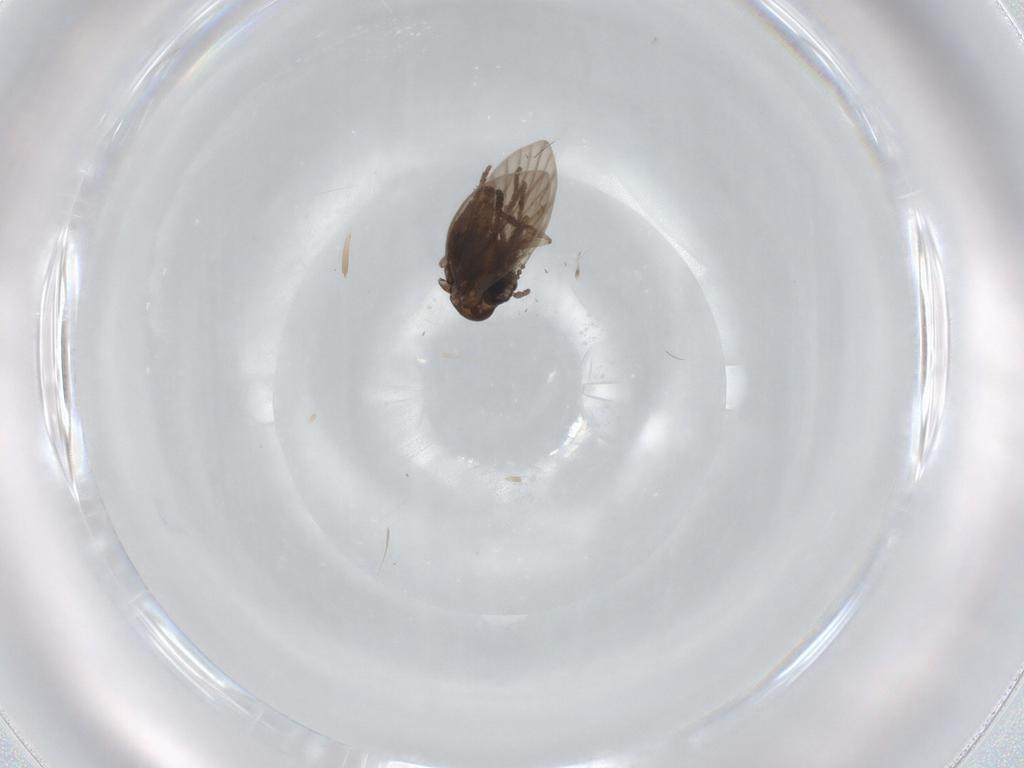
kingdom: Animalia
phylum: Arthropoda
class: Insecta
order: Diptera
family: Psychodidae
